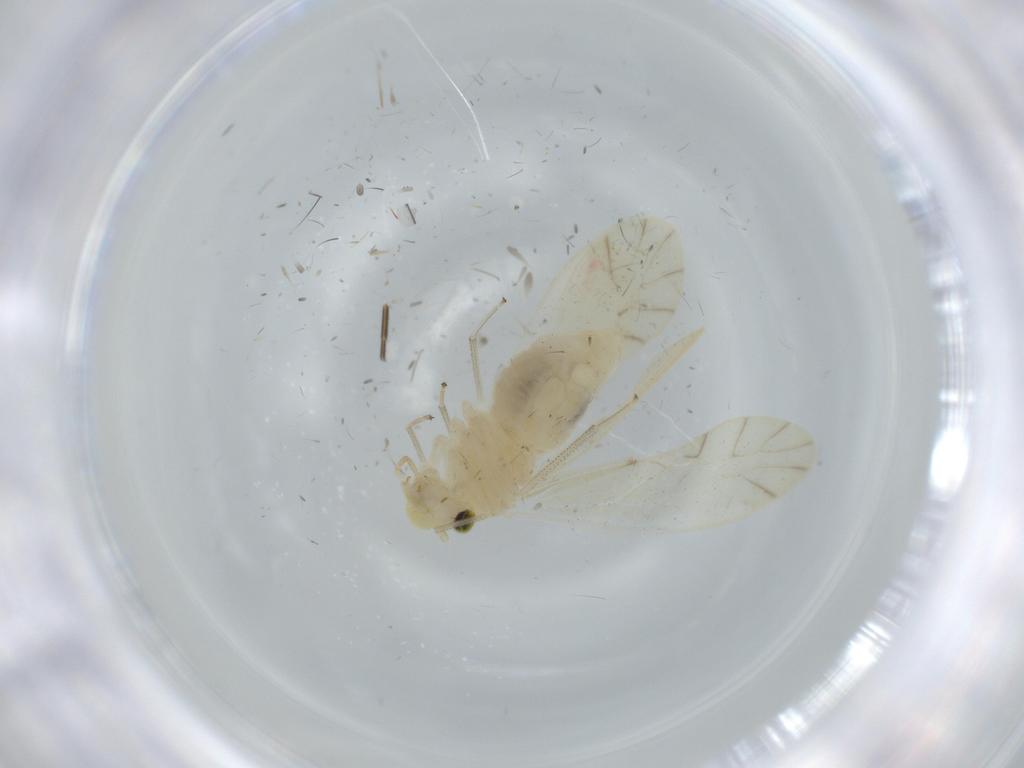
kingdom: Animalia
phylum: Arthropoda
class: Insecta
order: Psocodea
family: Caeciliusidae
